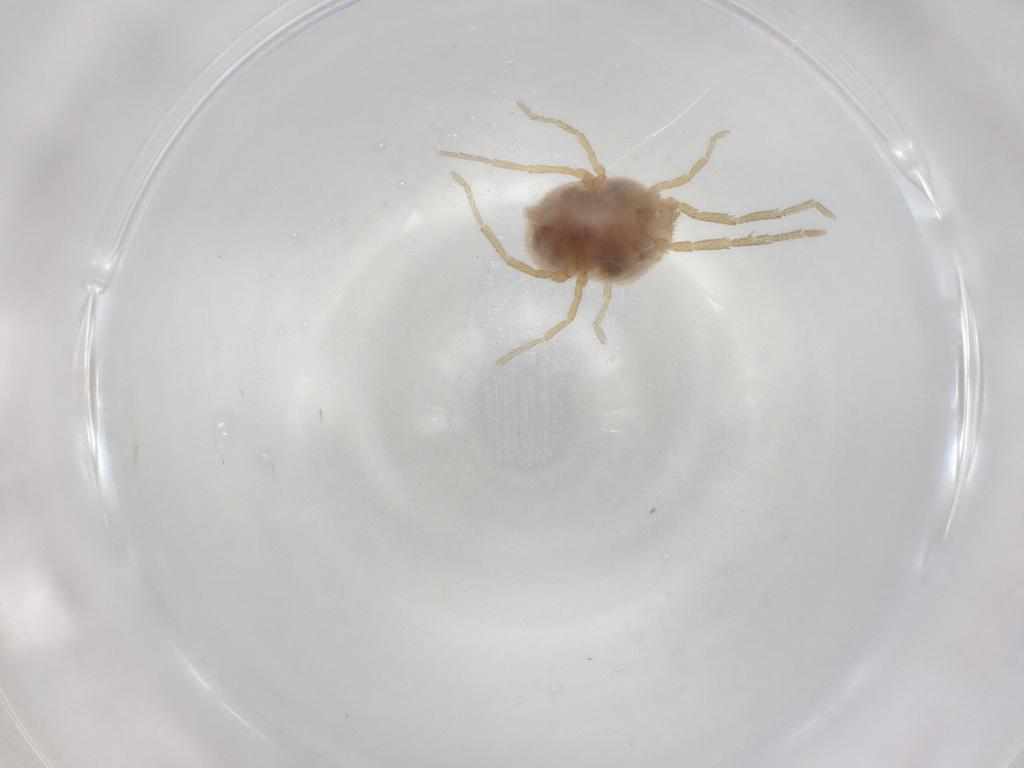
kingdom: Animalia
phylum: Arthropoda
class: Arachnida
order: Trombidiformes
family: Erythraeidae
